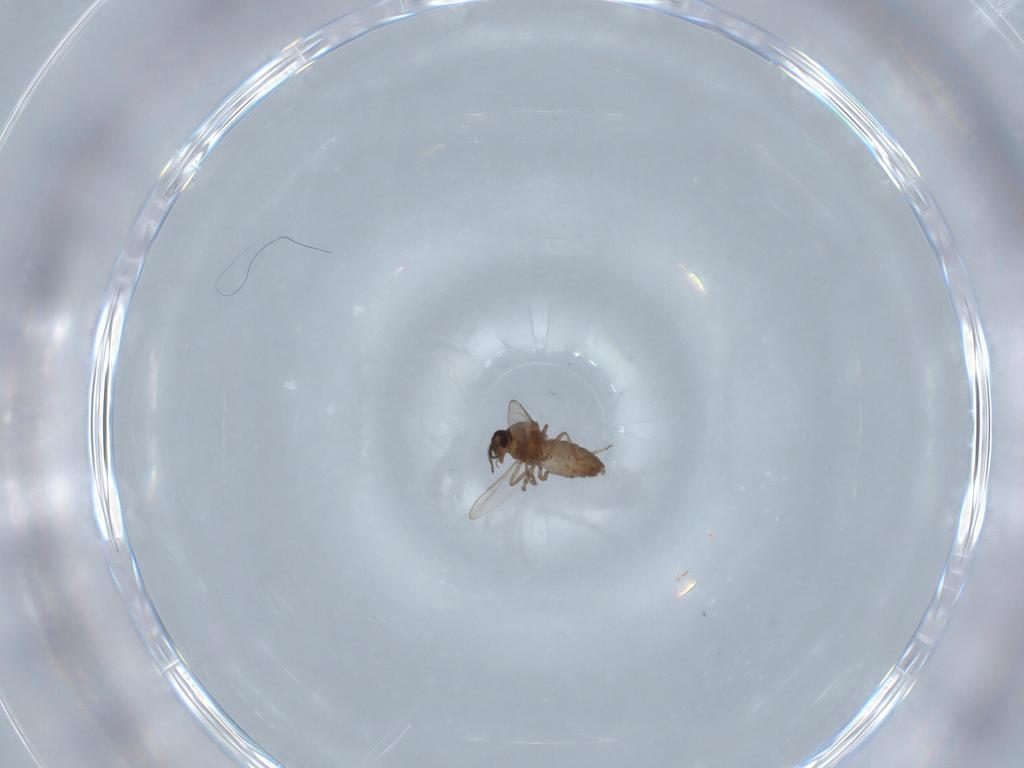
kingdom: Animalia
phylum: Arthropoda
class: Insecta
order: Diptera
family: Ceratopogonidae
